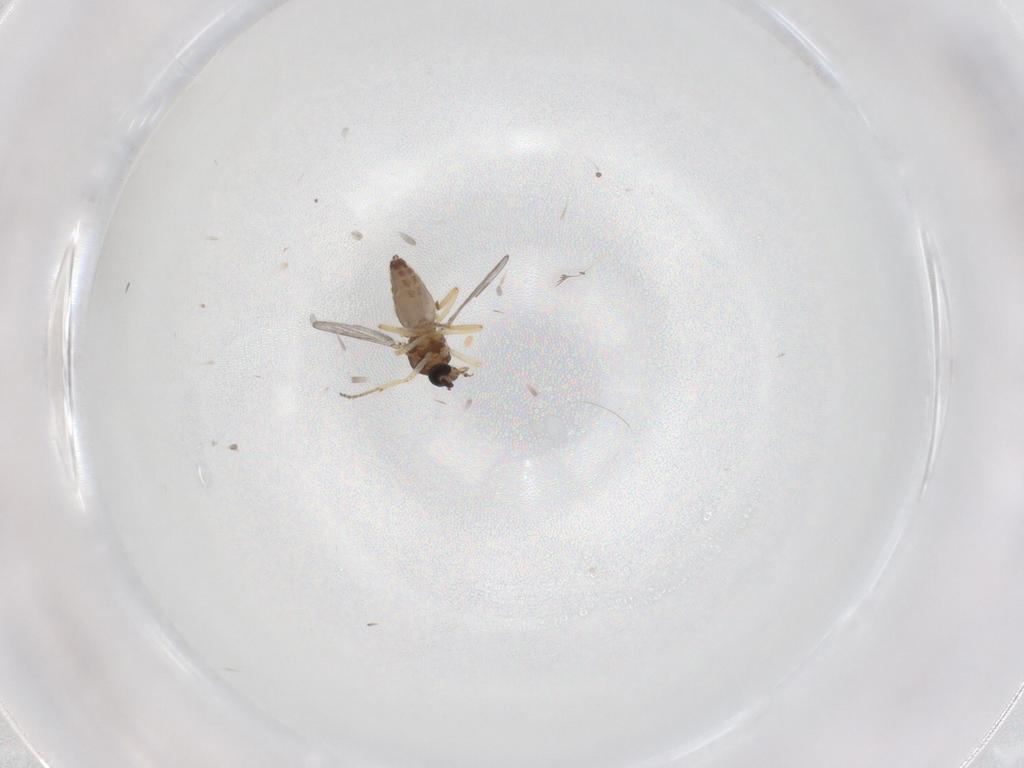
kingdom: Animalia
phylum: Arthropoda
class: Insecta
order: Diptera
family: Ceratopogonidae
